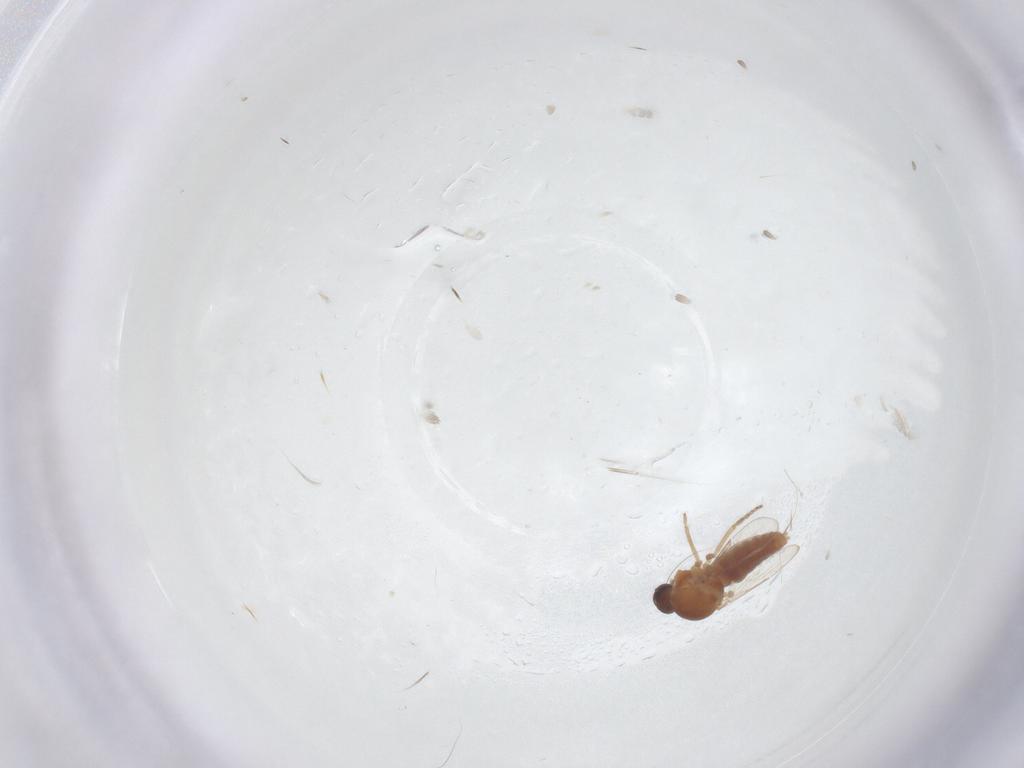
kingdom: Animalia
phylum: Arthropoda
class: Insecta
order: Diptera
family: Ceratopogonidae
